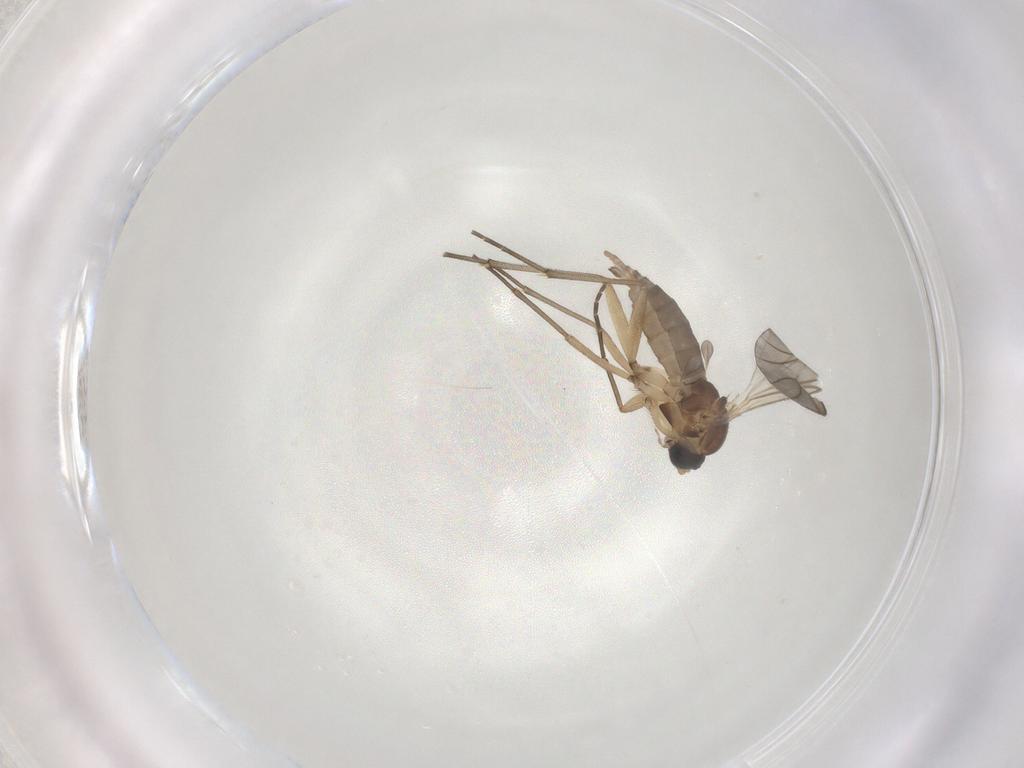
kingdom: Animalia
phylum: Arthropoda
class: Insecta
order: Diptera
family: Sciaridae
